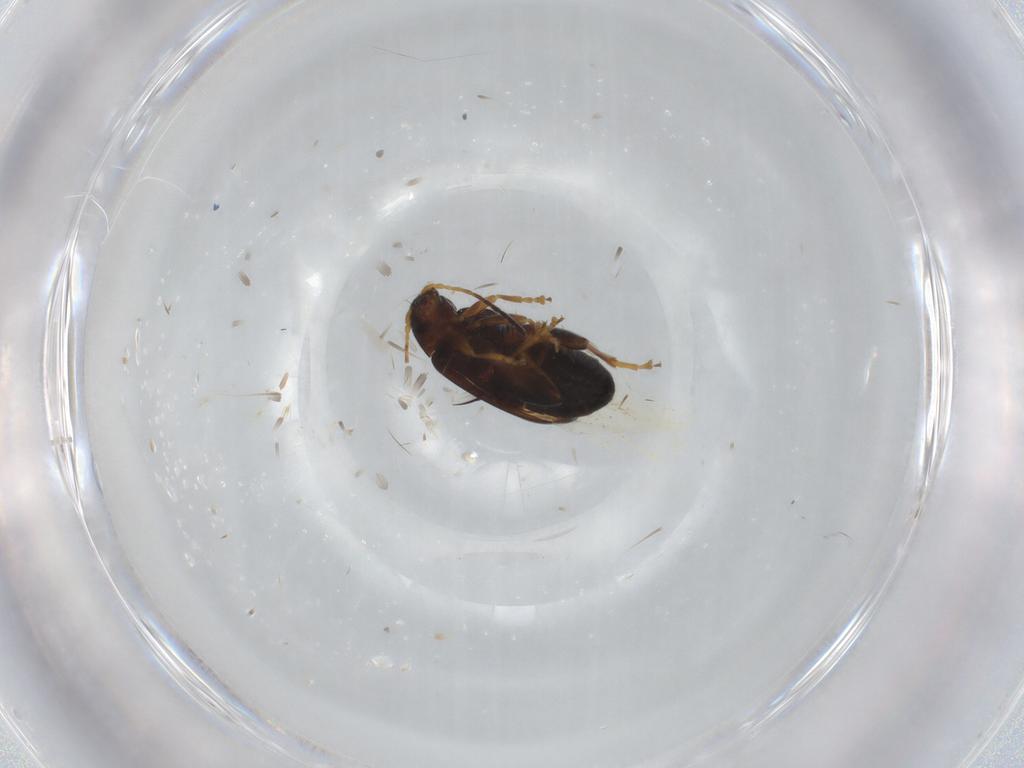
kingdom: Animalia
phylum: Arthropoda
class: Insecta
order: Coleoptera
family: Chrysomelidae
